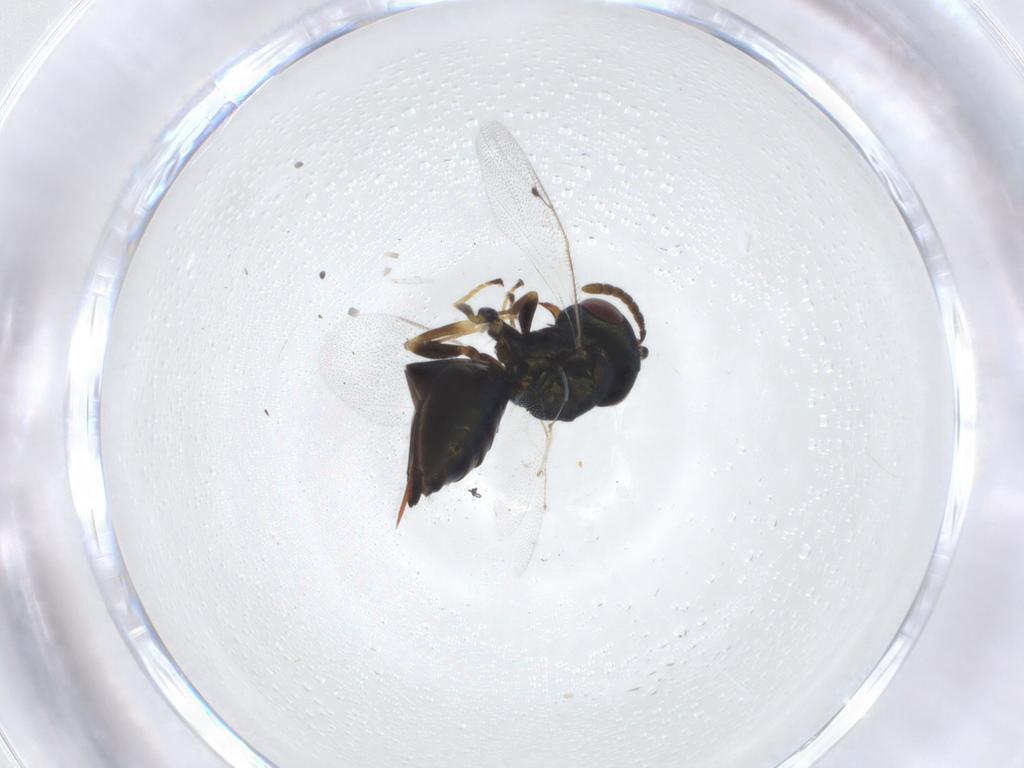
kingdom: Animalia
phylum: Arthropoda
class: Insecta
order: Hymenoptera
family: Pteromalidae
